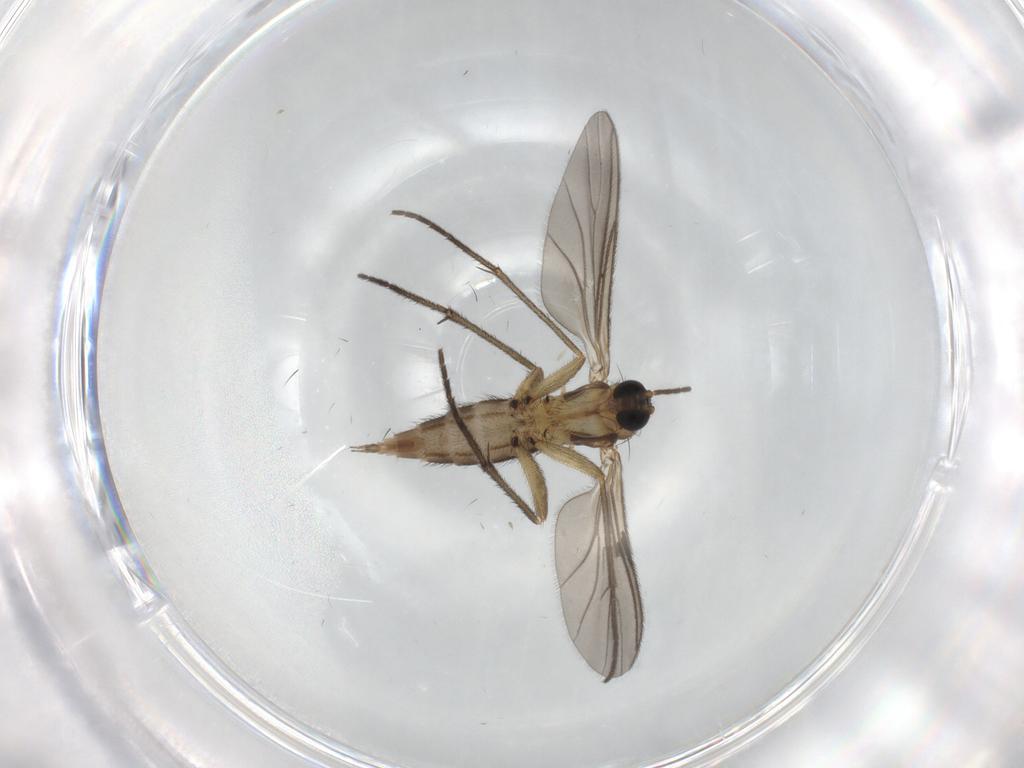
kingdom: Animalia
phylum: Arthropoda
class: Insecta
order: Diptera
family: Sciaridae
